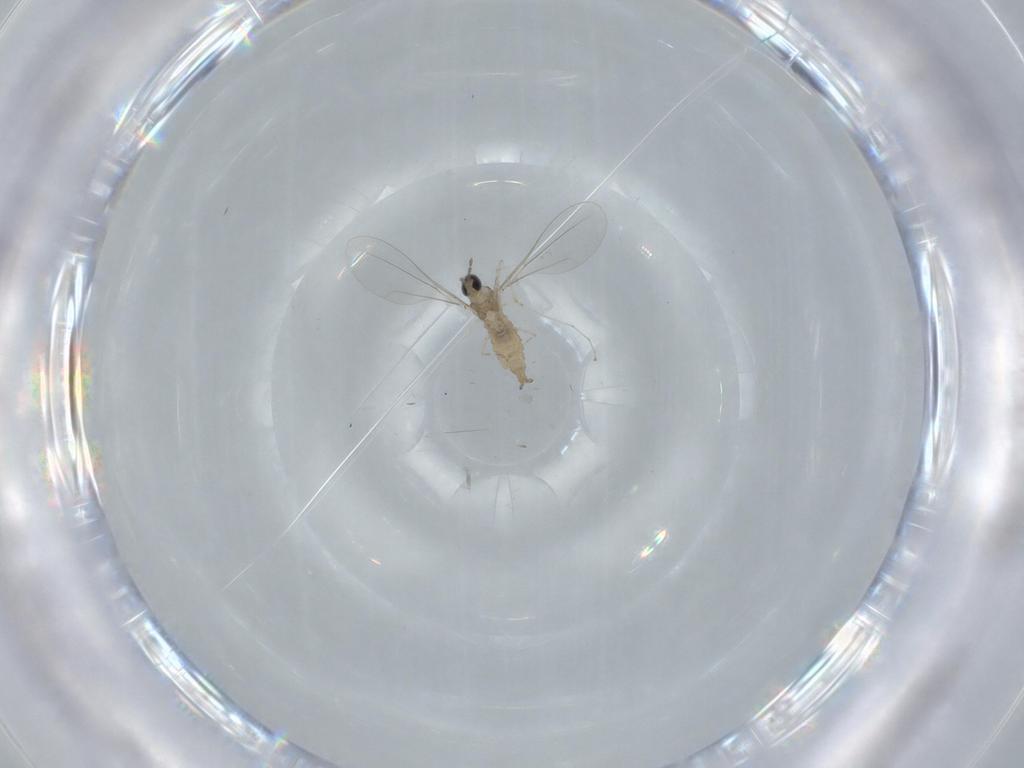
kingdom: Animalia
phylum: Arthropoda
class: Insecta
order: Diptera
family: Cecidomyiidae
